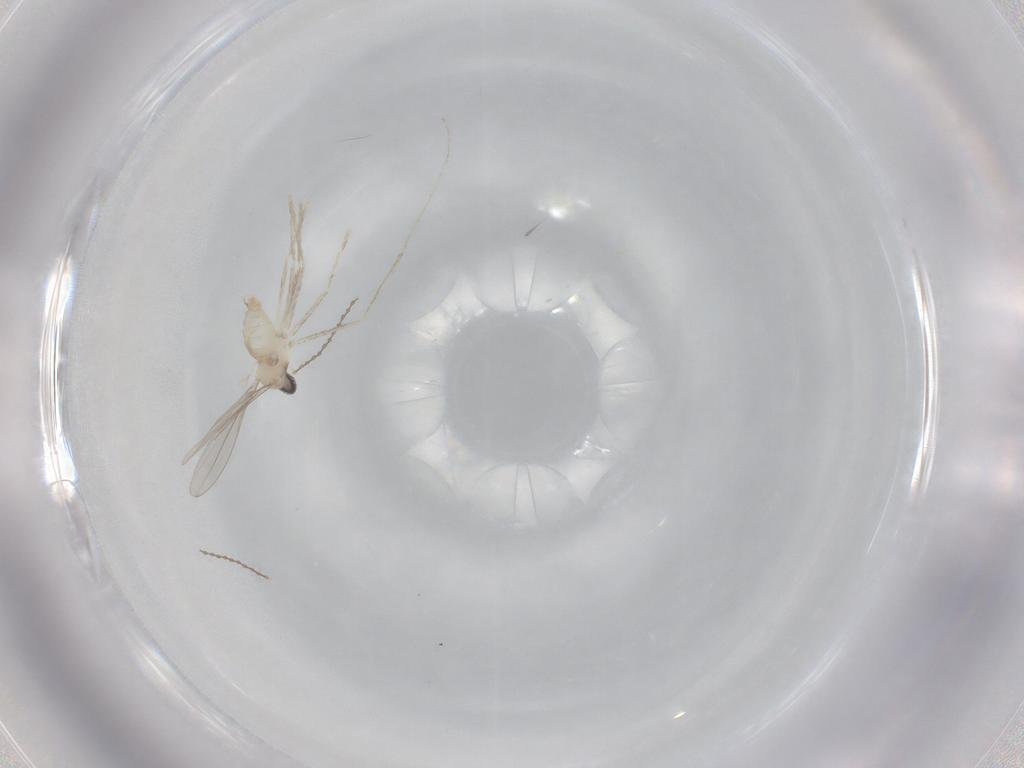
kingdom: Animalia
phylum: Arthropoda
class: Insecta
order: Diptera
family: Cecidomyiidae
